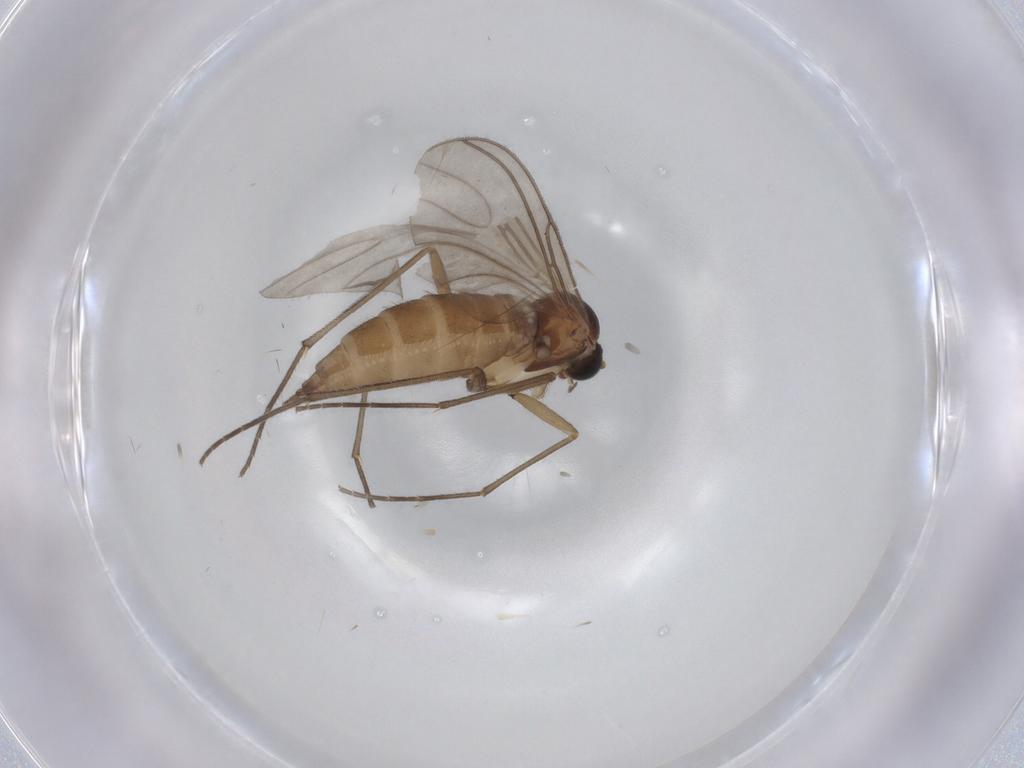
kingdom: Animalia
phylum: Arthropoda
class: Insecta
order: Diptera
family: Sciaridae
